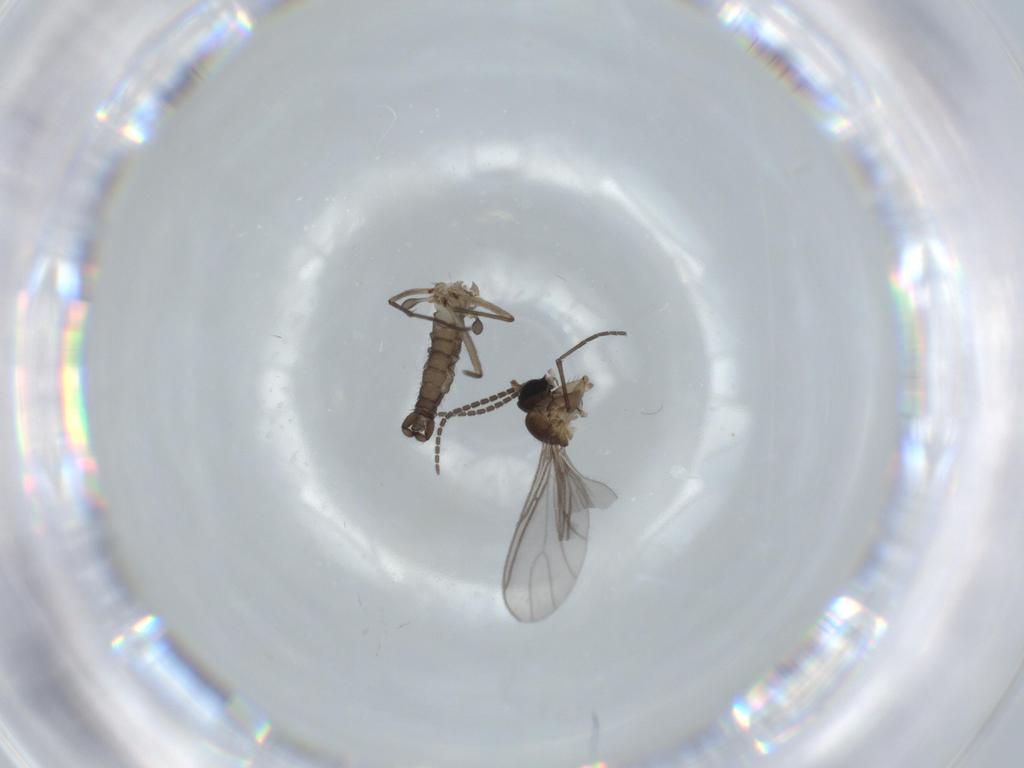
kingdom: Animalia
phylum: Arthropoda
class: Insecta
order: Diptera
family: Sciaridae
